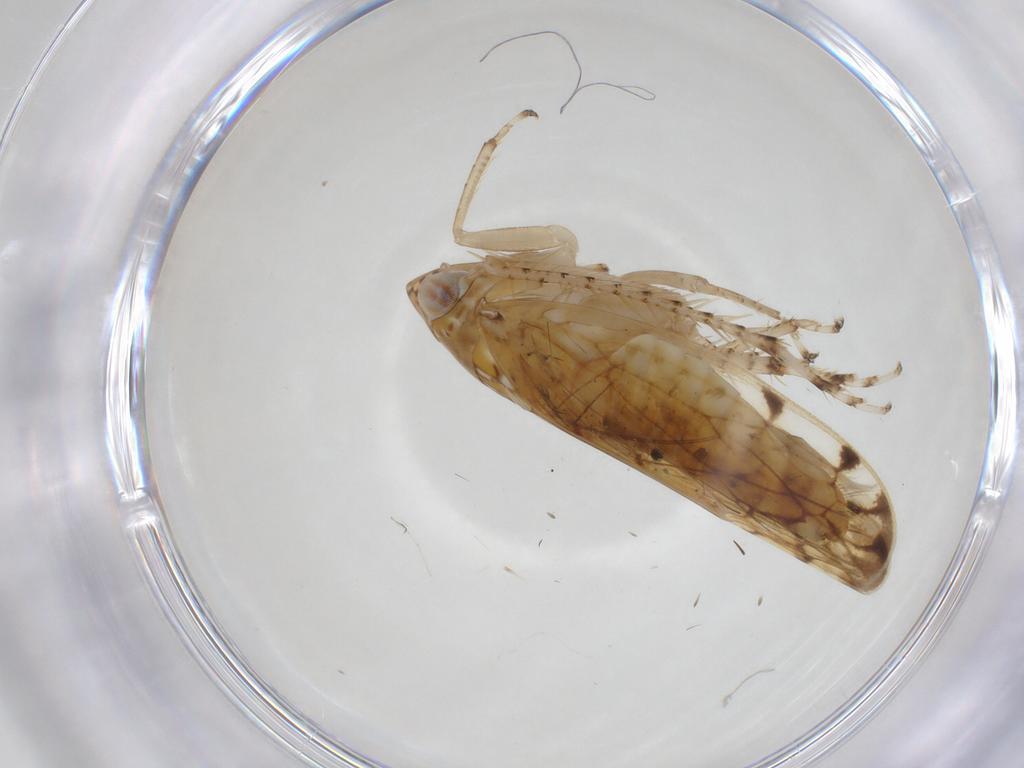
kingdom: Animalia
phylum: Arthropoda
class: Insecta
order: Hemiptera
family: Cicadellidae
